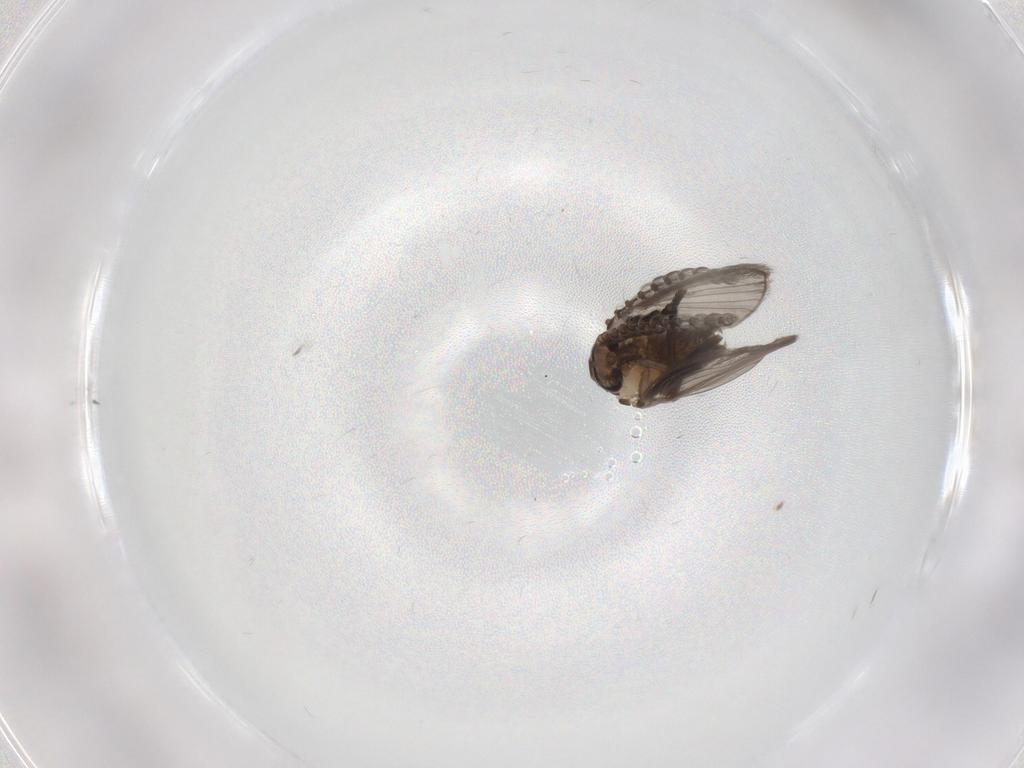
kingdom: Animalia
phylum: Arthropoda
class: Insecta
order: Diptera
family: Psychodidae
